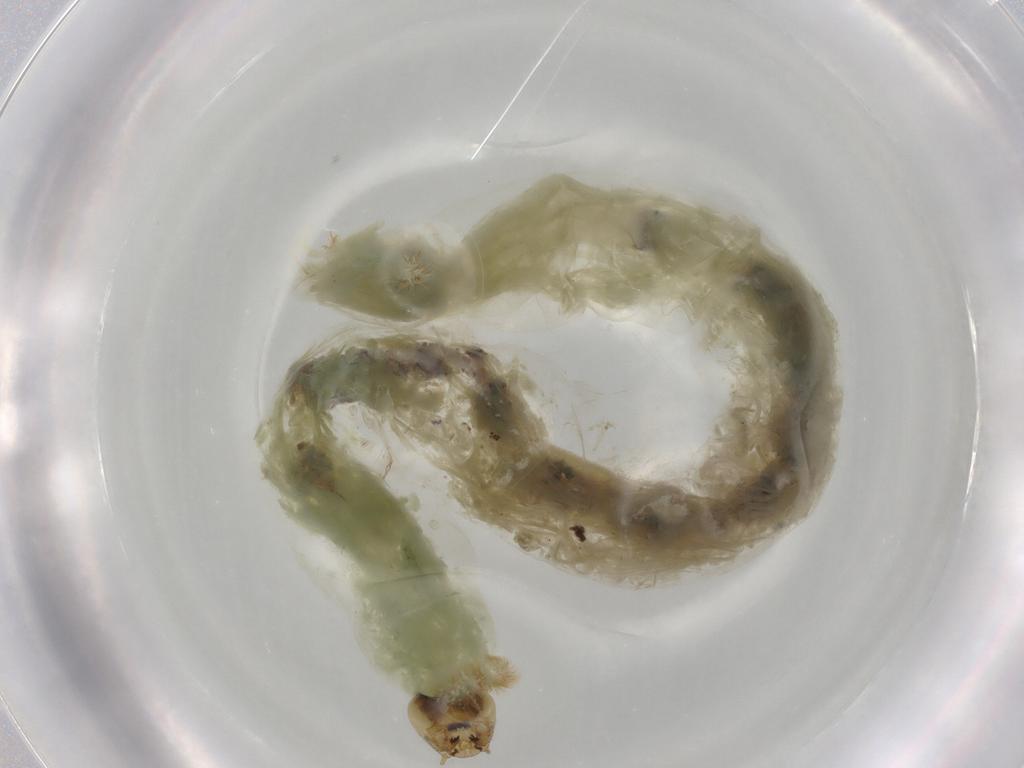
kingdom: Animalia
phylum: Arthropoda
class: Insecta
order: Diptera
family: Chironomidae
